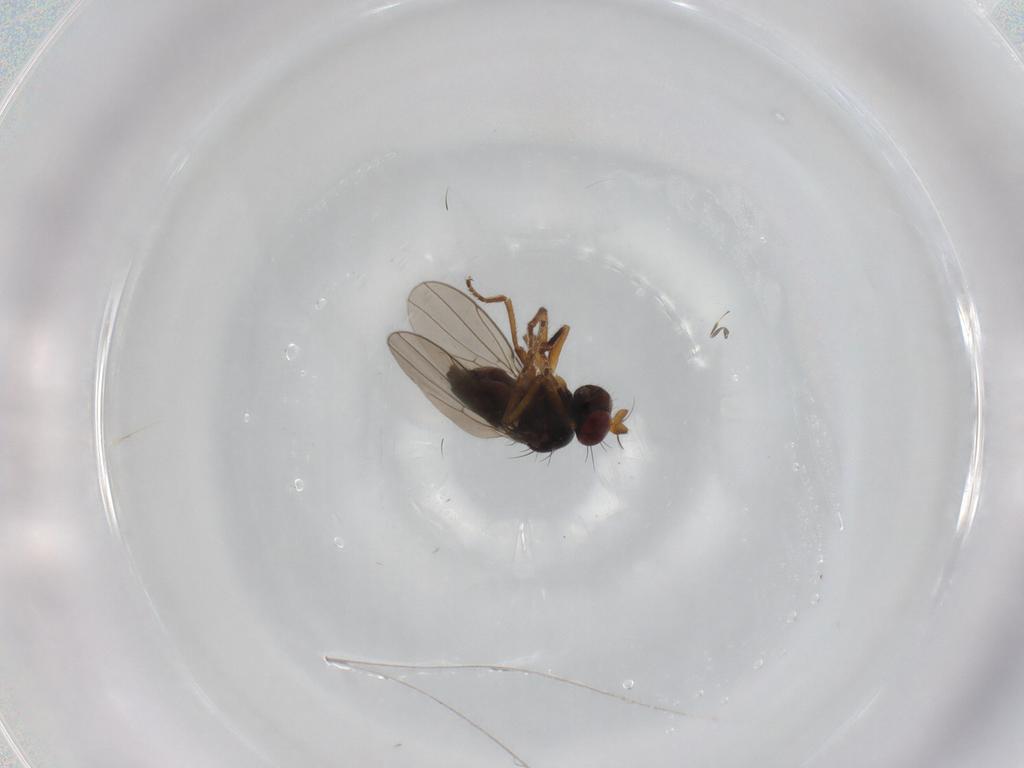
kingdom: Animalia
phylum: Arthropoda
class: Insecta
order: Diptera
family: Ephydridae
